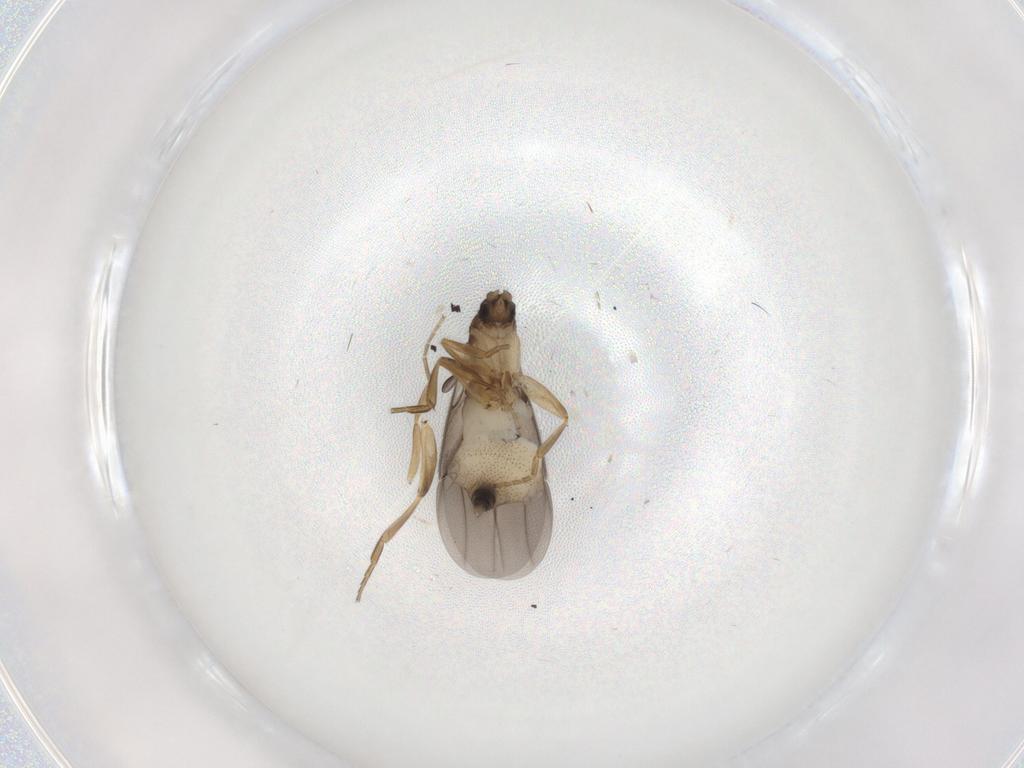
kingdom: Animalia
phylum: Arthropoda
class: Insecta
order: Diptera
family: Phoridae
